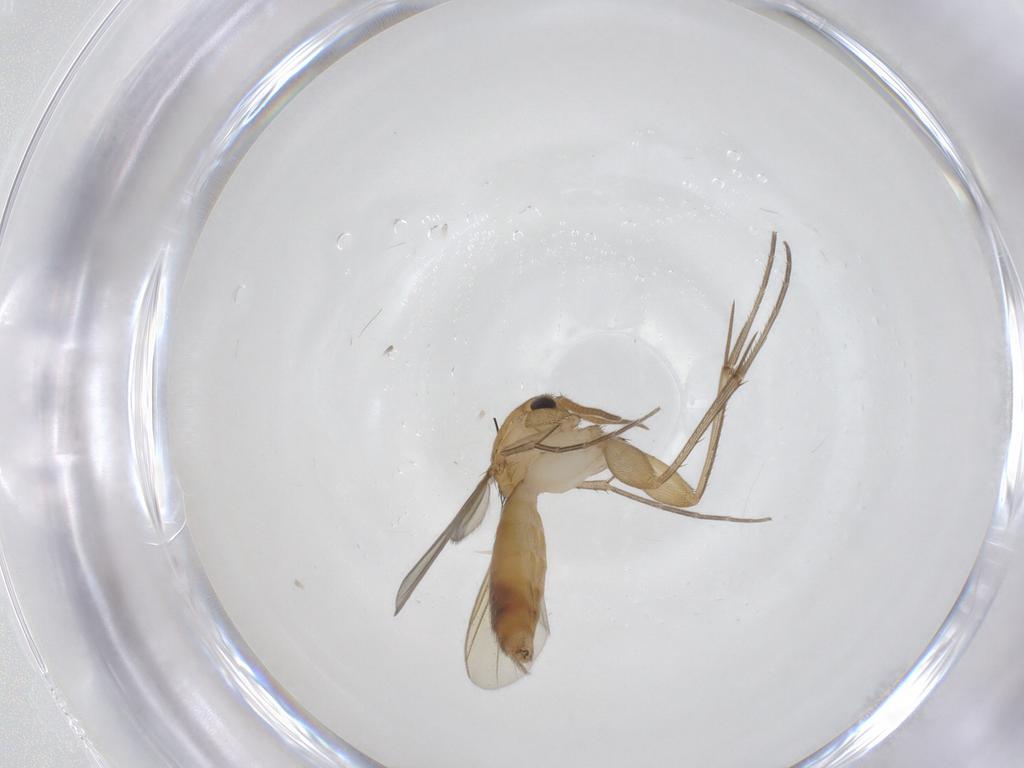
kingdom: Animalia
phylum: Arthropoda
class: Insecta
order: Diptera
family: Mycetophilidae
